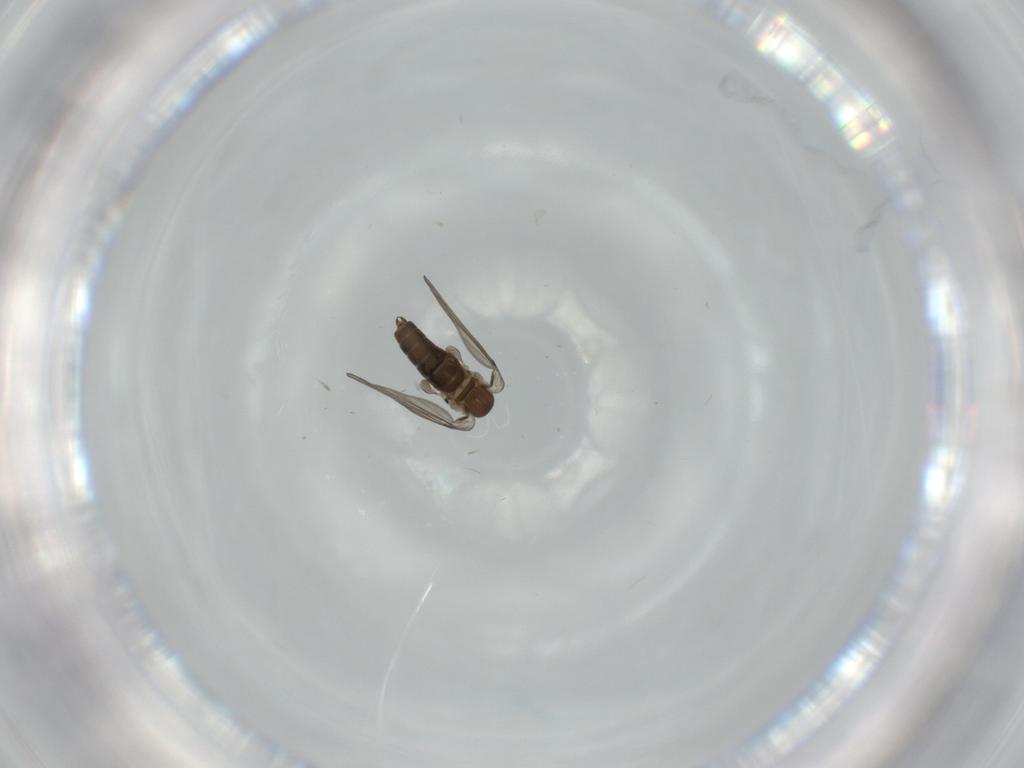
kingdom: Animalia
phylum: Arthropoda
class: Insecta
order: Diptera
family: Psychodidae
